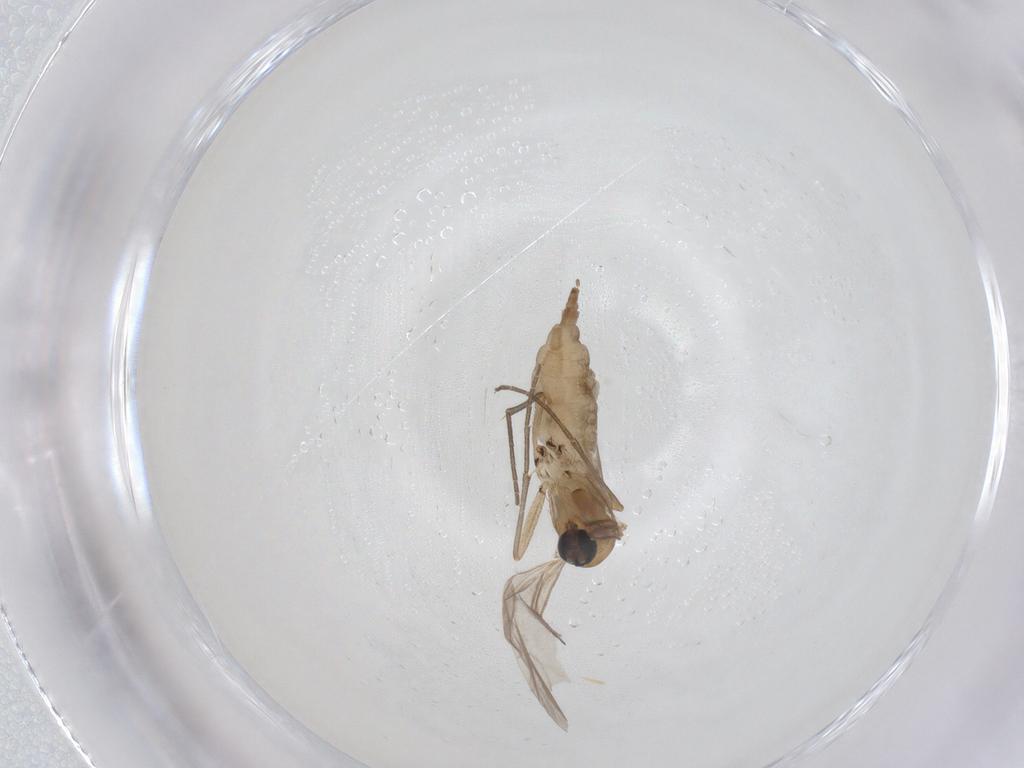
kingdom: Animalia
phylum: Arthropoda
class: Insecta
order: Diptera
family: Sciaridae
